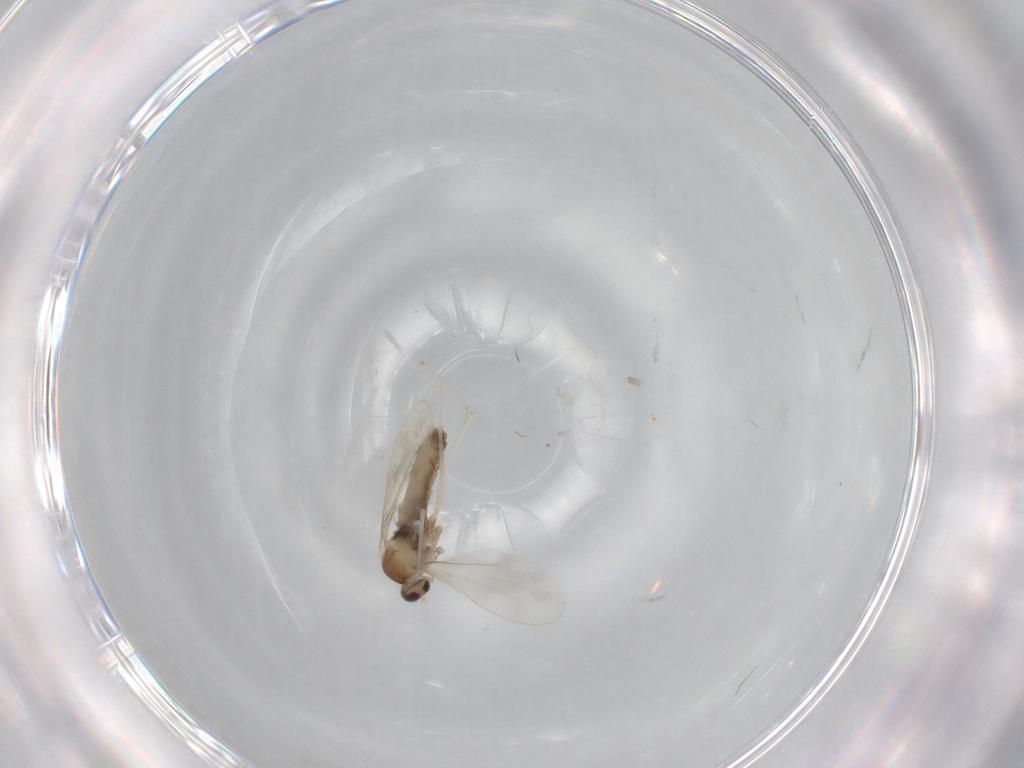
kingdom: Animalia
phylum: Arthropoda
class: Insecta
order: Diptera
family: Cecidomyiidae
